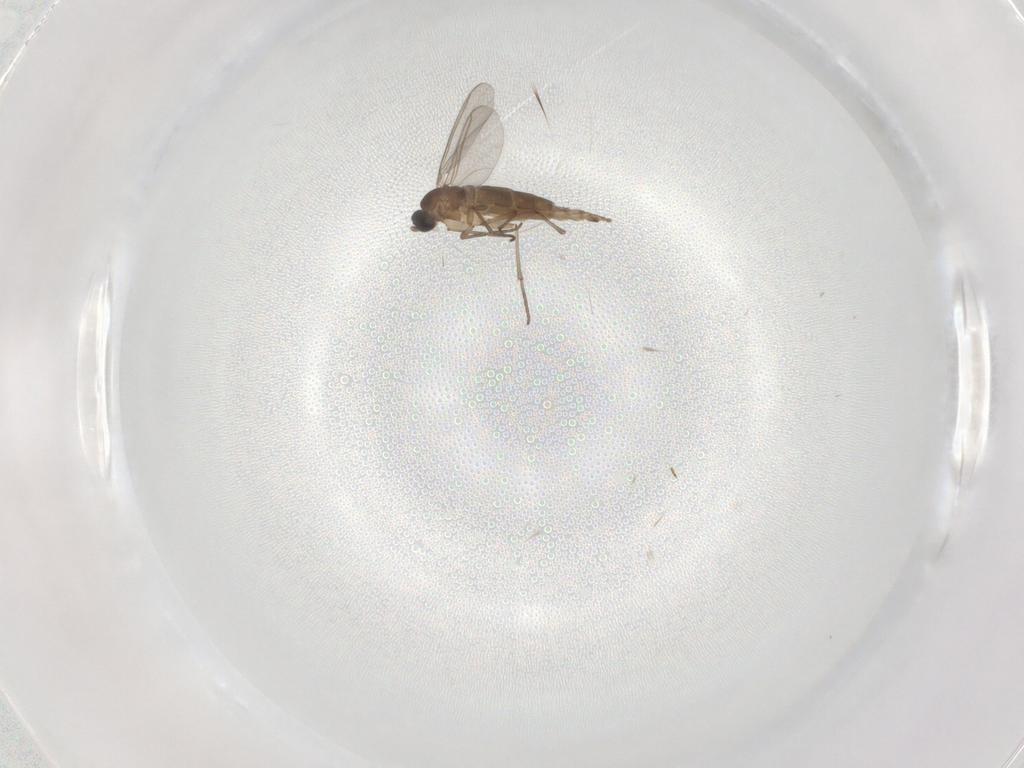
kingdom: Animalia
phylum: Arthropoda
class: Insecta
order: Diptera
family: Sciaridae
